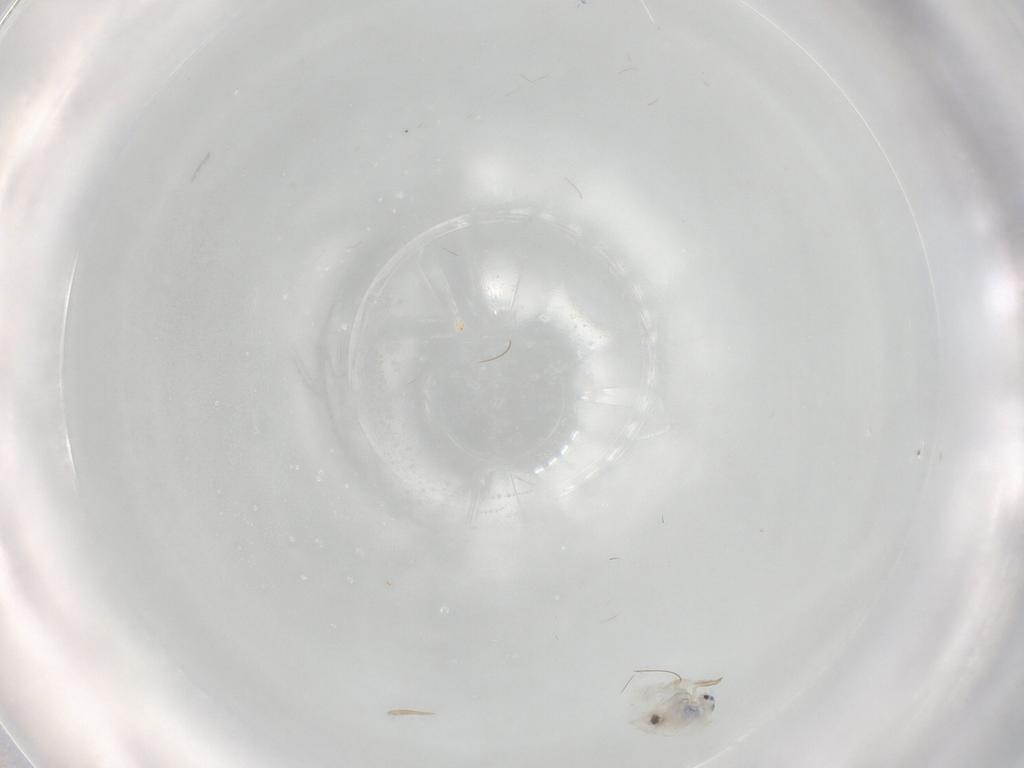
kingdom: Animalia
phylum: Arthropoda
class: Collembola
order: Entomobryomorpha
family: Entomobryidae
